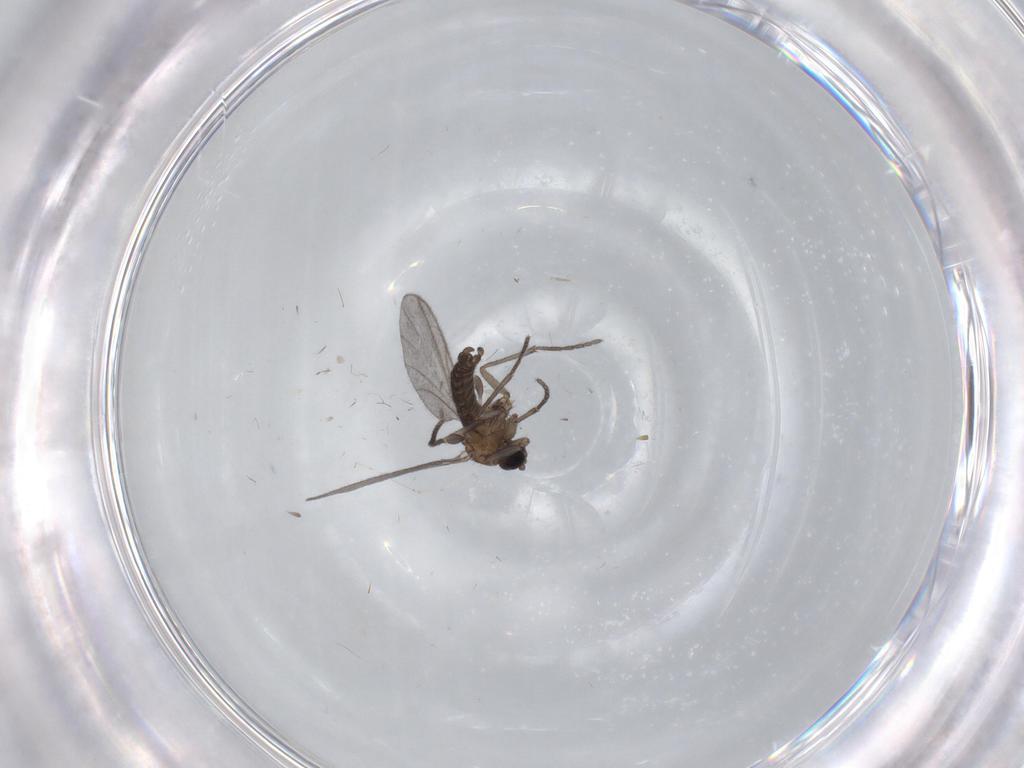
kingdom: Animalia
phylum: Arthropoda
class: Insecta
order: Diptera
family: Sciaridae
